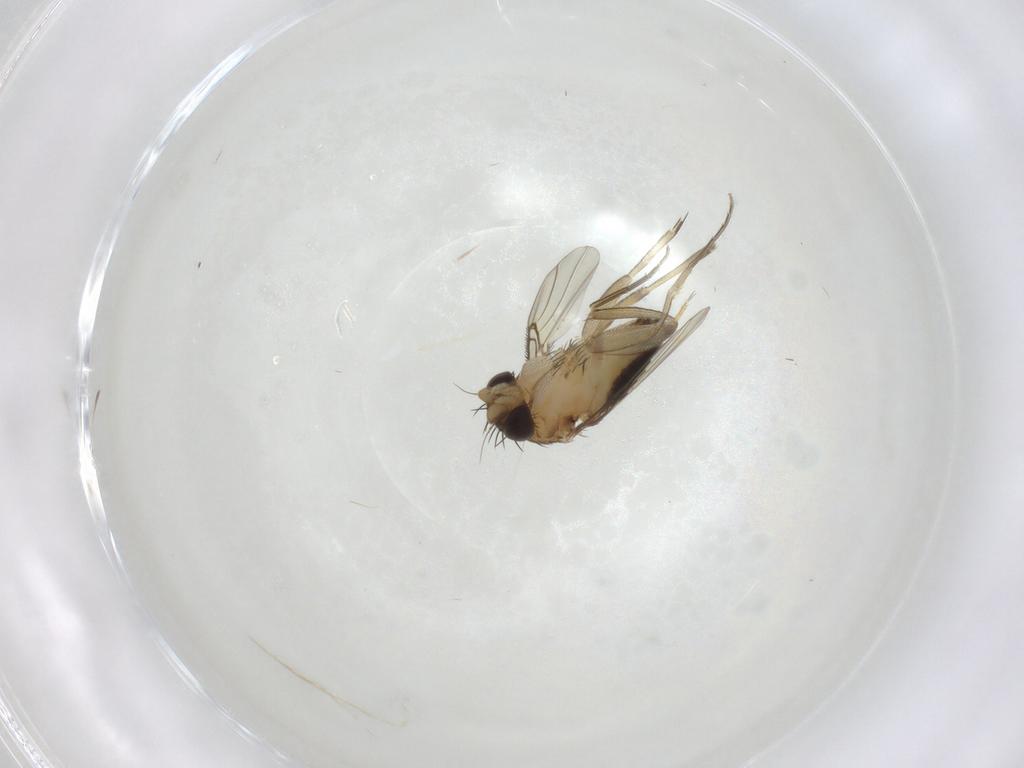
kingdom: Animalia
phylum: Arthropoda
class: Insecta
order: Diptera
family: Phoridae
